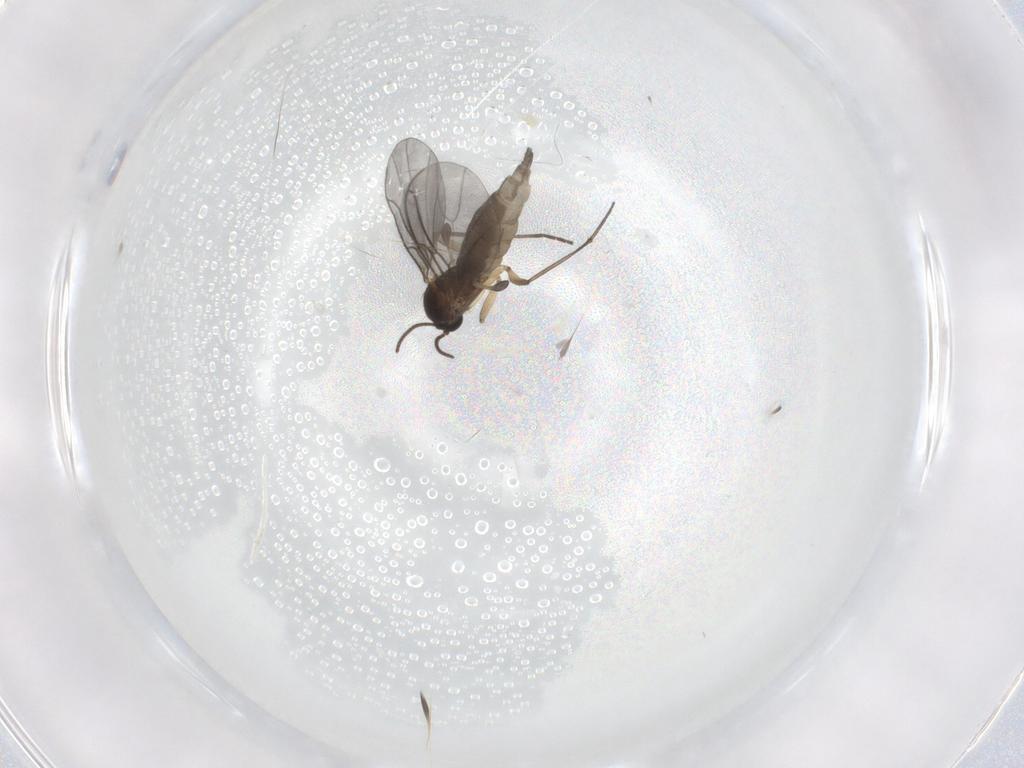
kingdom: Animalia
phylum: Arthropoda
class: Insecta
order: Diptera
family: Sciaridae
